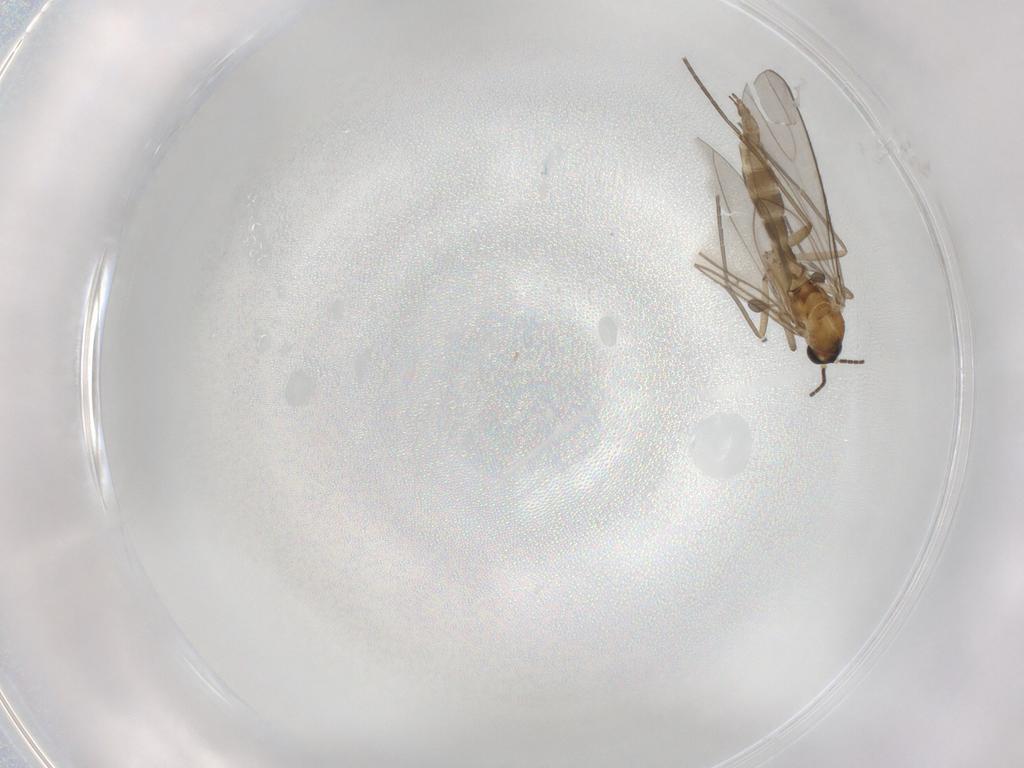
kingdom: Animalia
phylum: Arthropoda
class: Insecta
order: Diptera
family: Sciaridae
